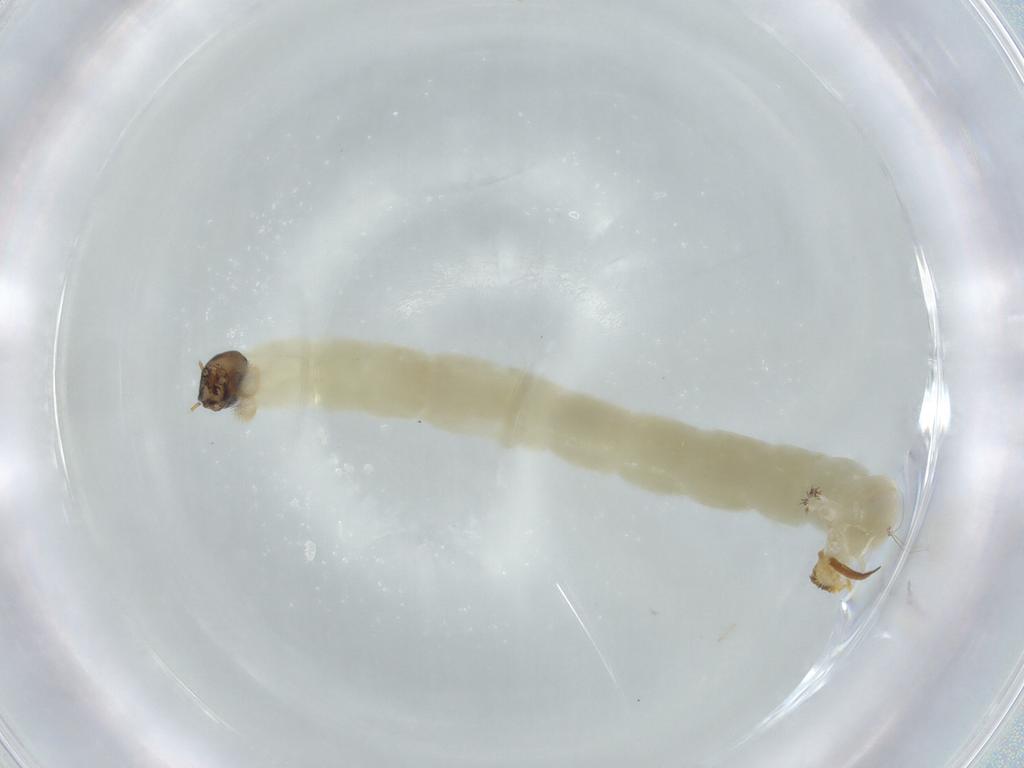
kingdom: Animalia
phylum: Arthropoda
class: Insecta
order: Diptera
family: Chironomidae
